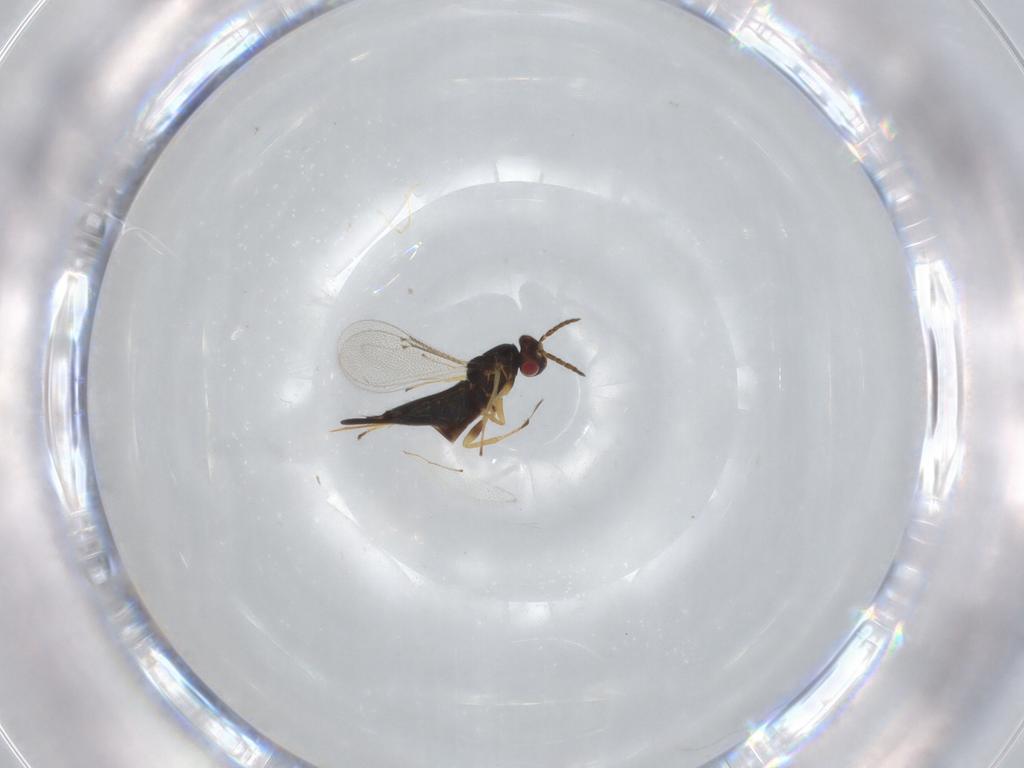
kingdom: Animalia
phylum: Arthropoda
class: Insecta
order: Hymenoptera
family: Eulophidae
